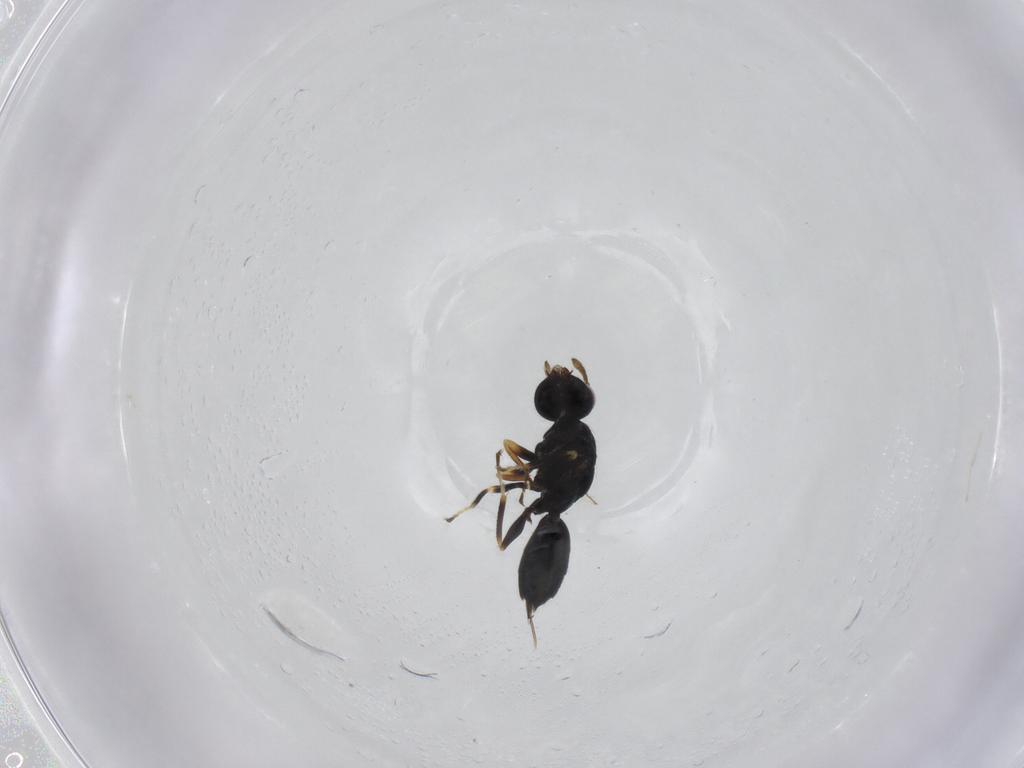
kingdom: Animalia
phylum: Arthropoda
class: Insecta
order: Hymenoptera
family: Eulophidae
